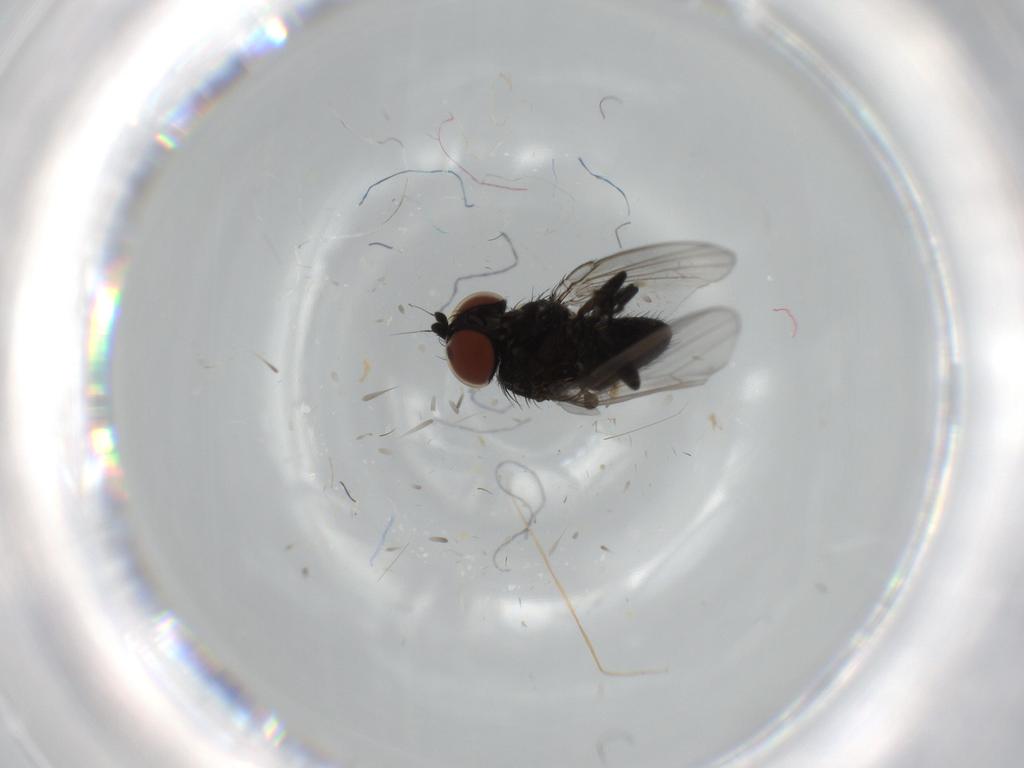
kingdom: Animalia
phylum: Arthropoda
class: Insecta
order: Diptera
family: Milichiidae
